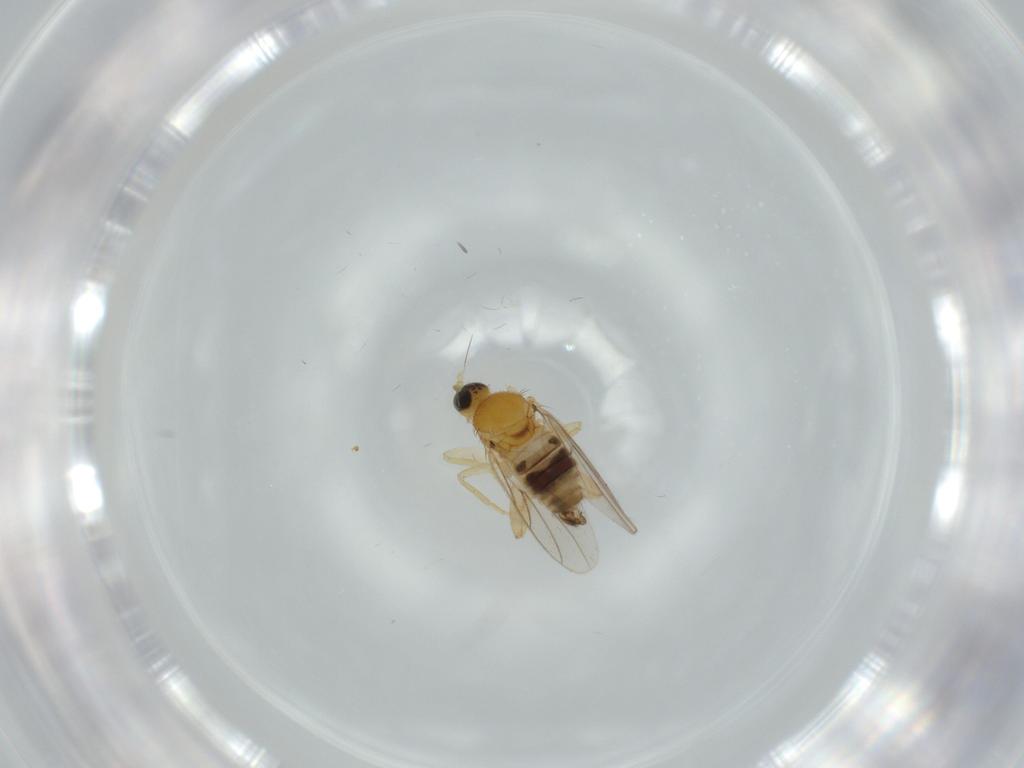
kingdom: Animalia
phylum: Arthropoda
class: Insecta
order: Diptera
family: Hybotidae
